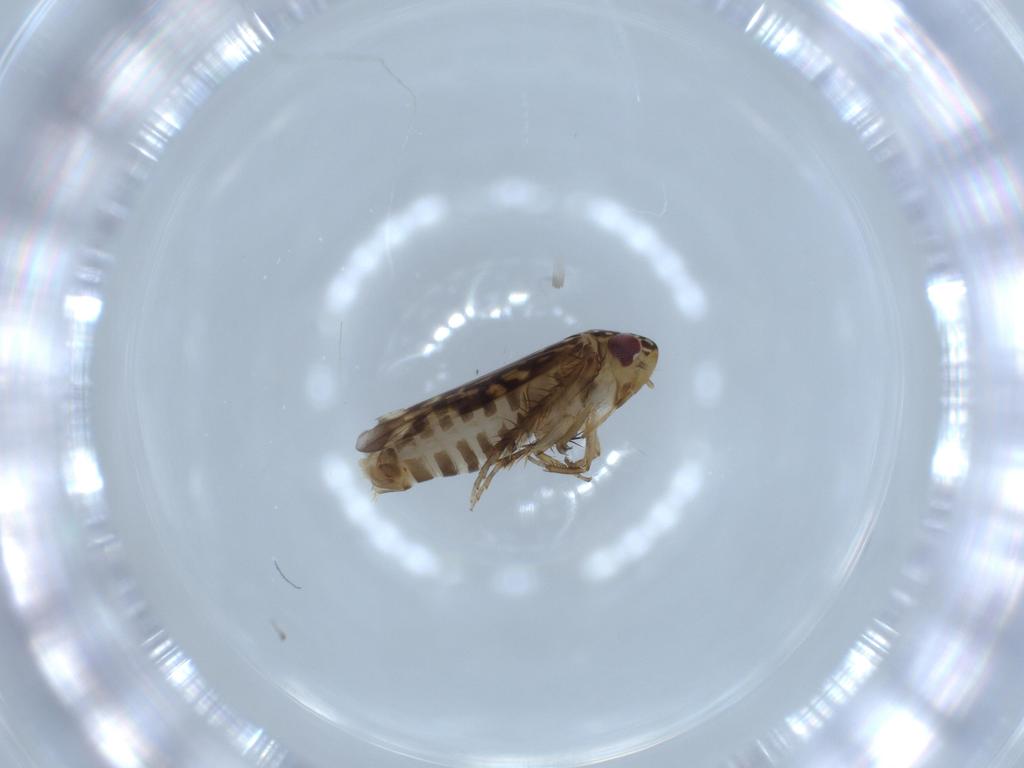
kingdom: Animalia
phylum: Arthropoda
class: Insecta
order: Hemiptera
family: Cicadellidae
